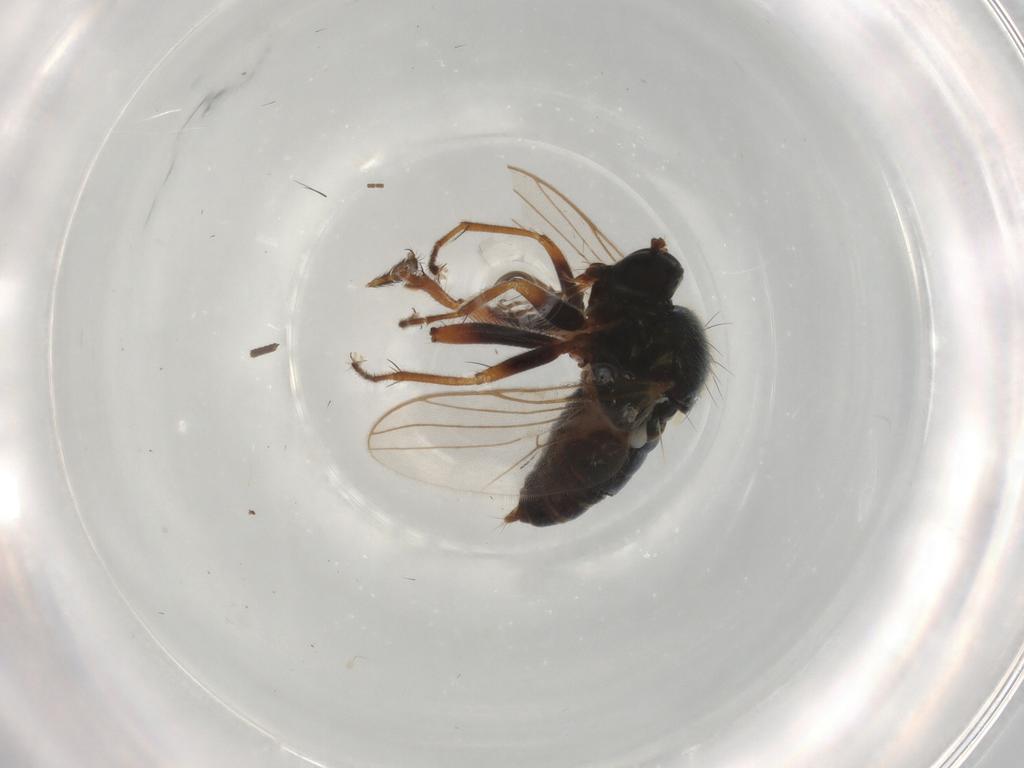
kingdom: Animalia
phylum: Arthropoda
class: Insecta
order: Diptera
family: Hybotidae
